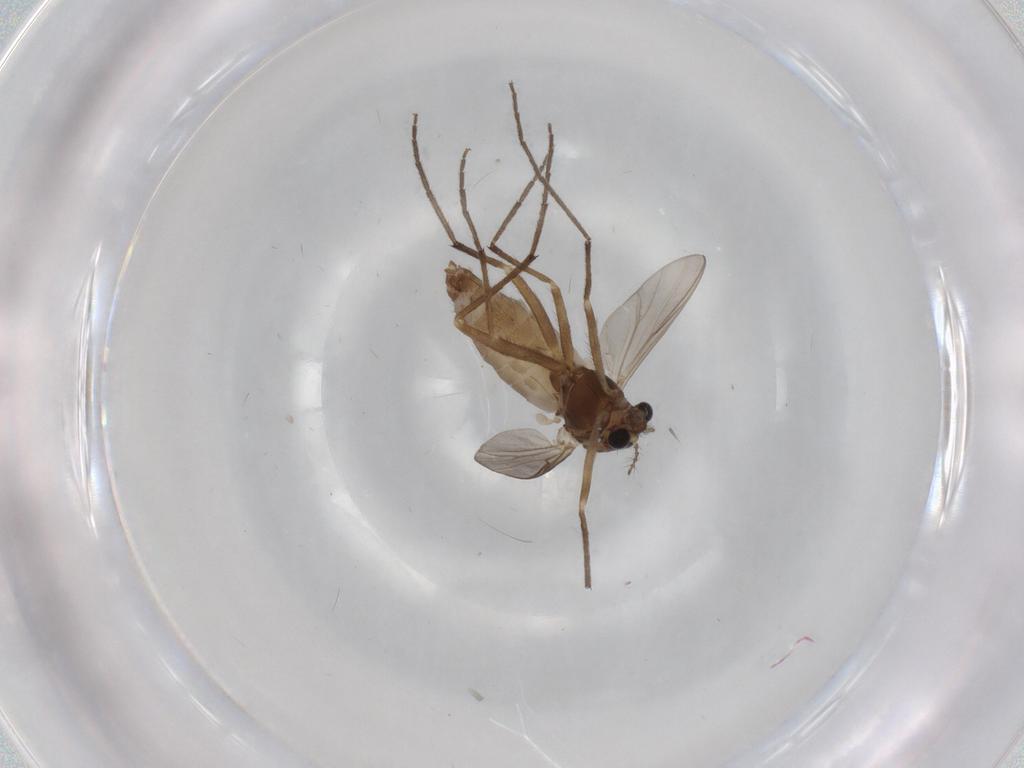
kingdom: Animalia
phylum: Arthropoda
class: Insecta
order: Diptera
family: Chironomidae
